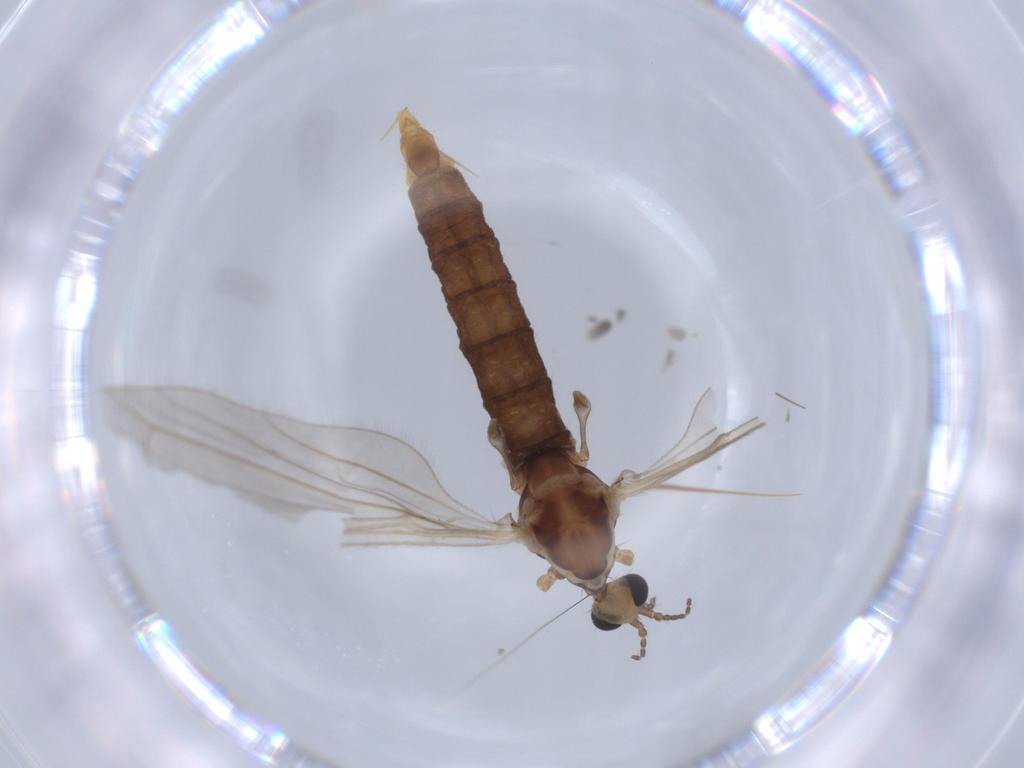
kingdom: Animalia
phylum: Arthropoda
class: Insecta
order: Diptera
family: Limoniidae
